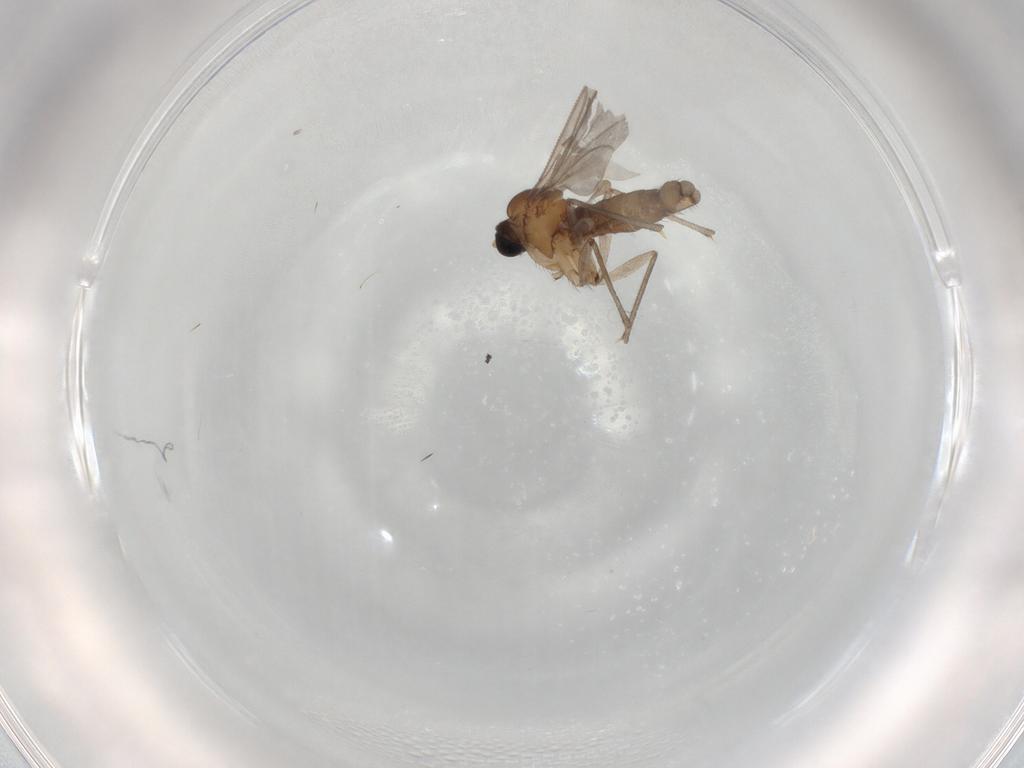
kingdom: Animalia
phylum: Arthropoda
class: Insecta
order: Diptera
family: Sciaridae
